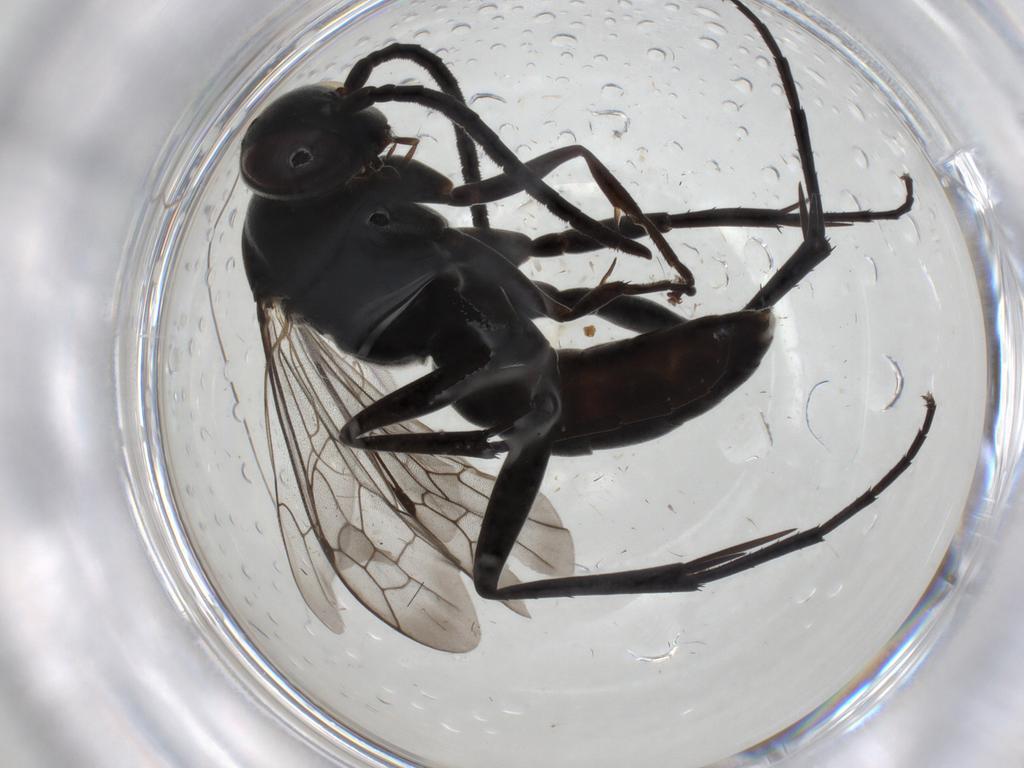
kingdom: Animalia
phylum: Arthropoda
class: Insecta
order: Hymenoptera
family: Pompilidae
